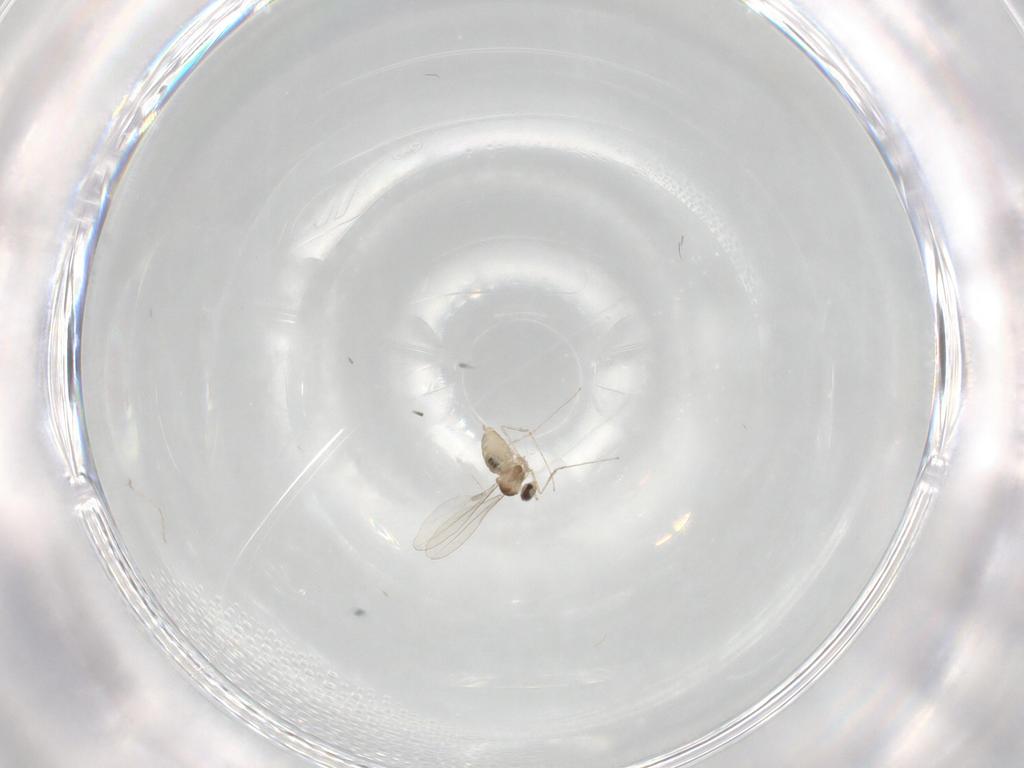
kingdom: Animalia
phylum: Arthropoda
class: Insecta
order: Diptera
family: Cecidomyiidae
